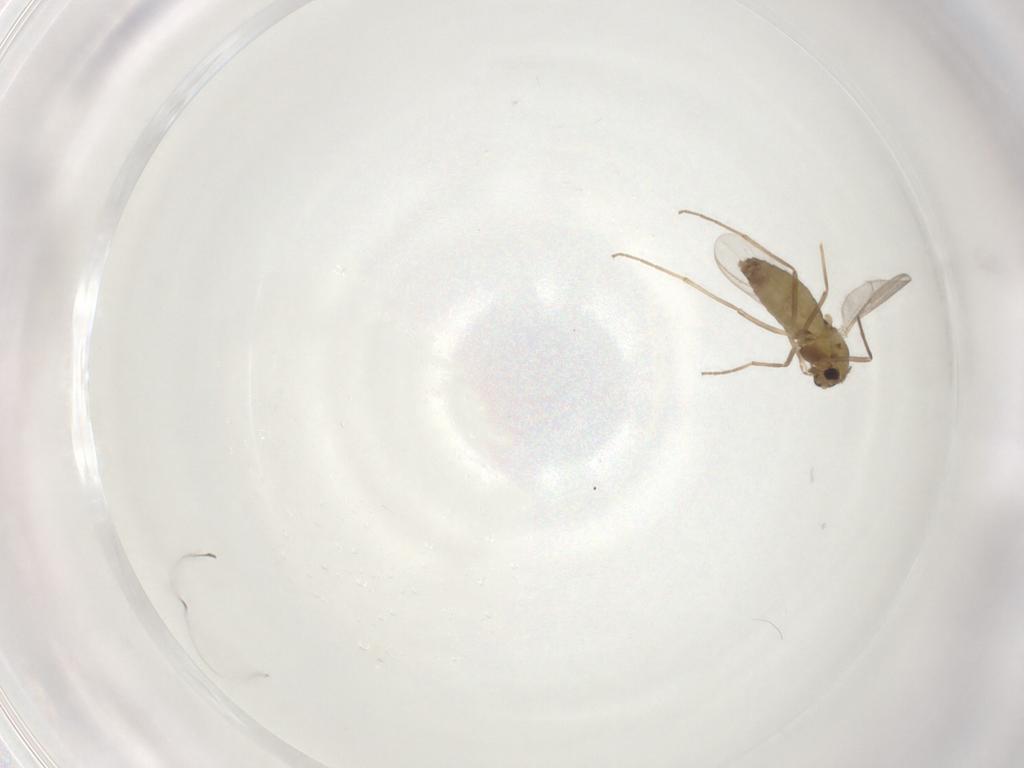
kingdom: Animalia
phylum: Arthropoda
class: Insecta
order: Diptera
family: Chironomidae
